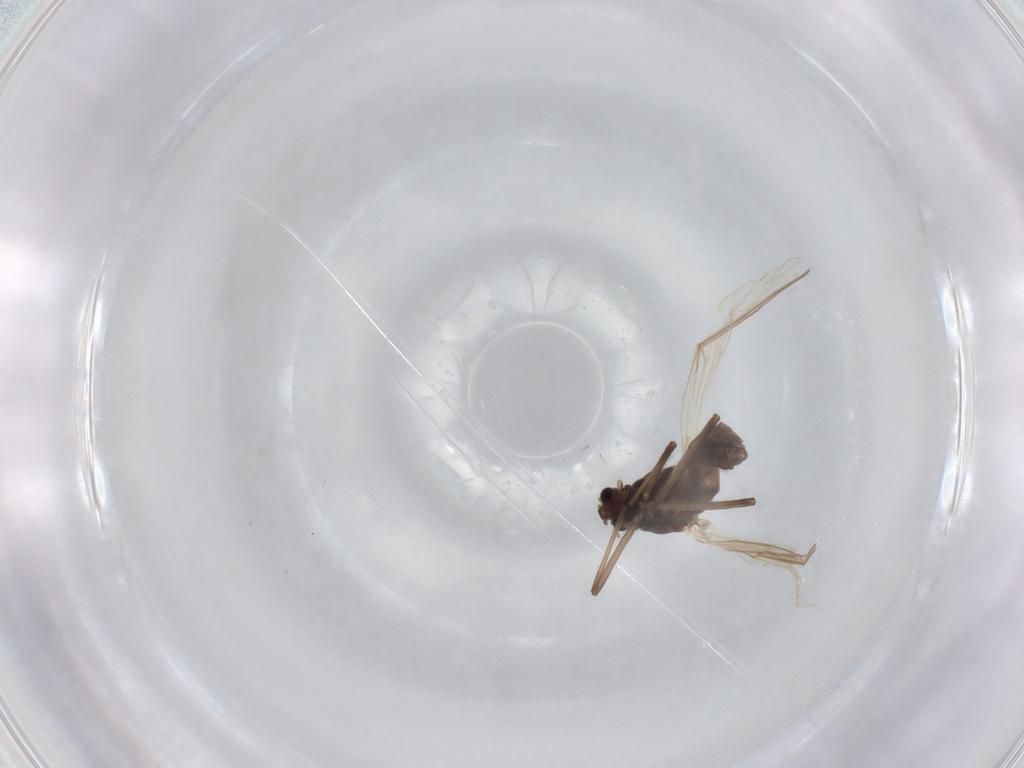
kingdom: Animalia
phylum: Arthropoda
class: Insecta
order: Diptera
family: Chironomidae
